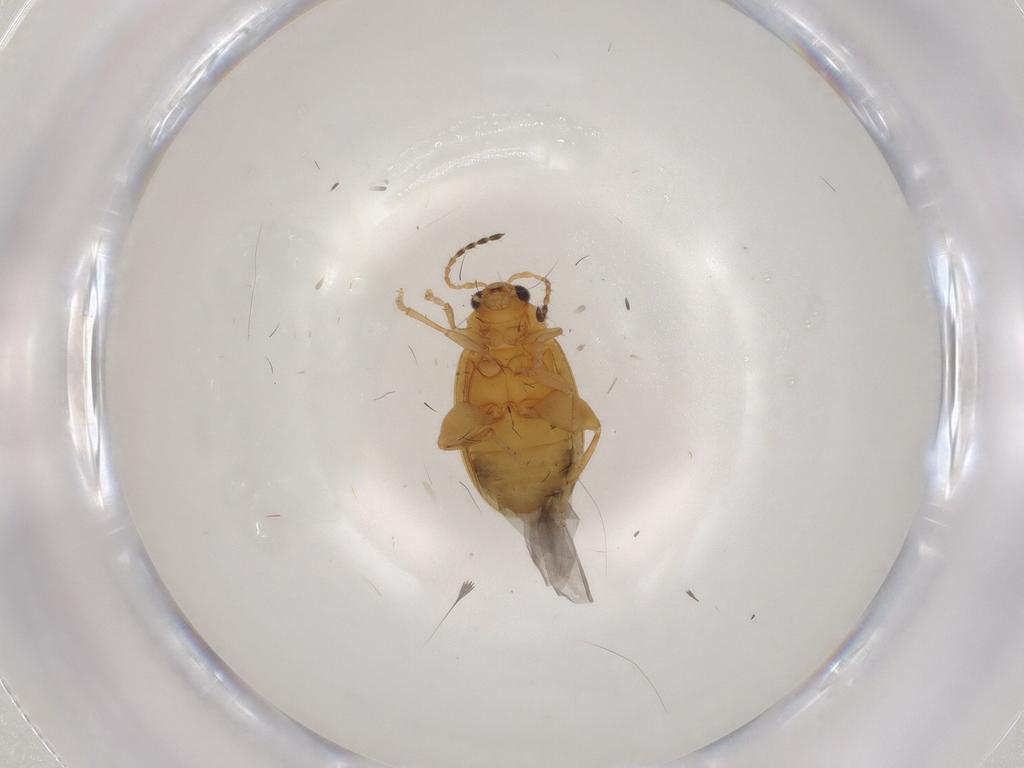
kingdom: Animalia
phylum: Arthropoda
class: Insecta
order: Coleoptera
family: Chrysomelidae
